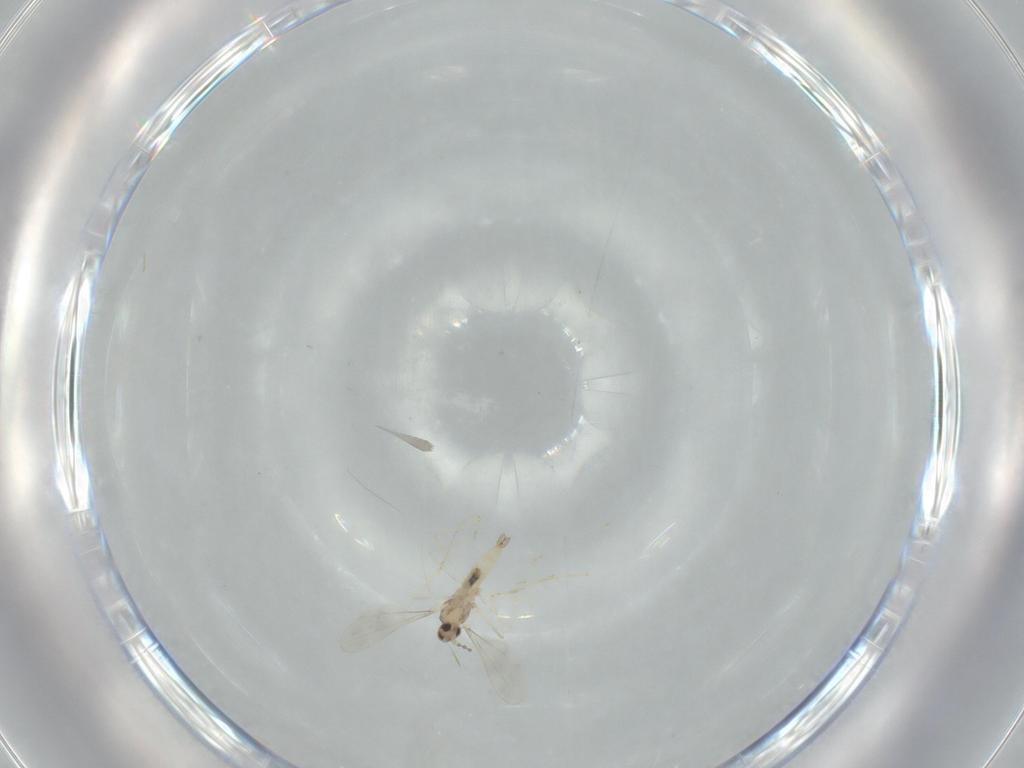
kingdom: Animalia
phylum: Arthropoda
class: Insecta
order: Diptera
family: Cecidomyiidae
